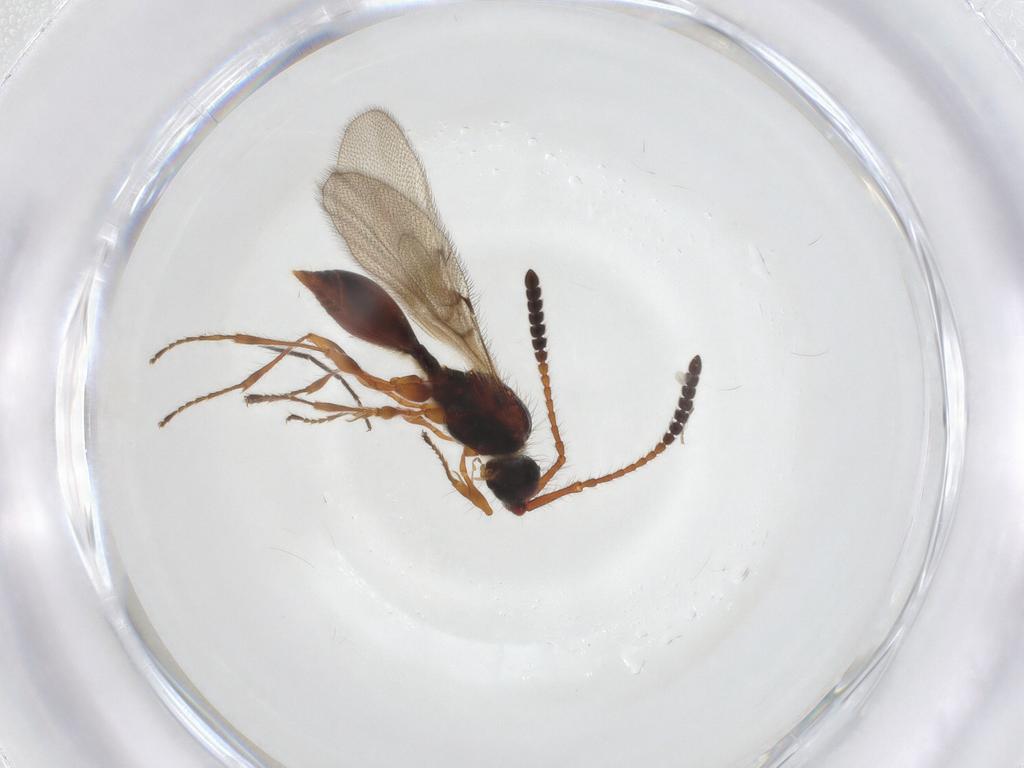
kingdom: Animalia
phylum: Arthropoda
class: Insecta
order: Hymenoptera
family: Diapriidae
